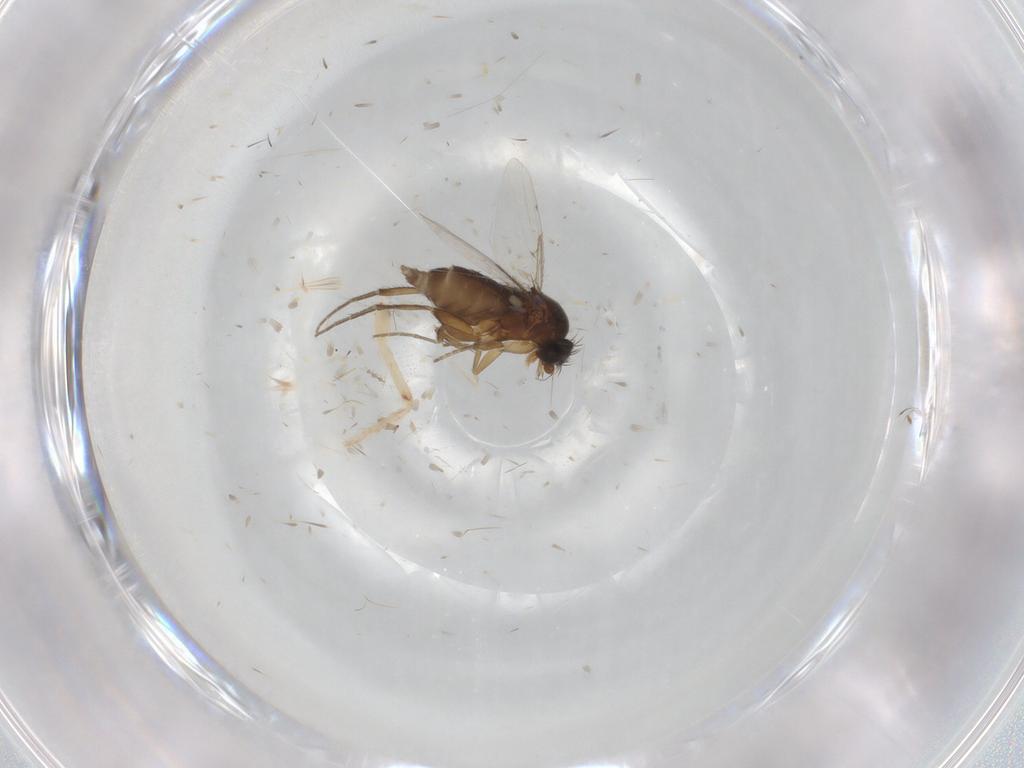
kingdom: Animalia
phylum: Arthropoda
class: Insecta
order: Diptera
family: Phoridae
